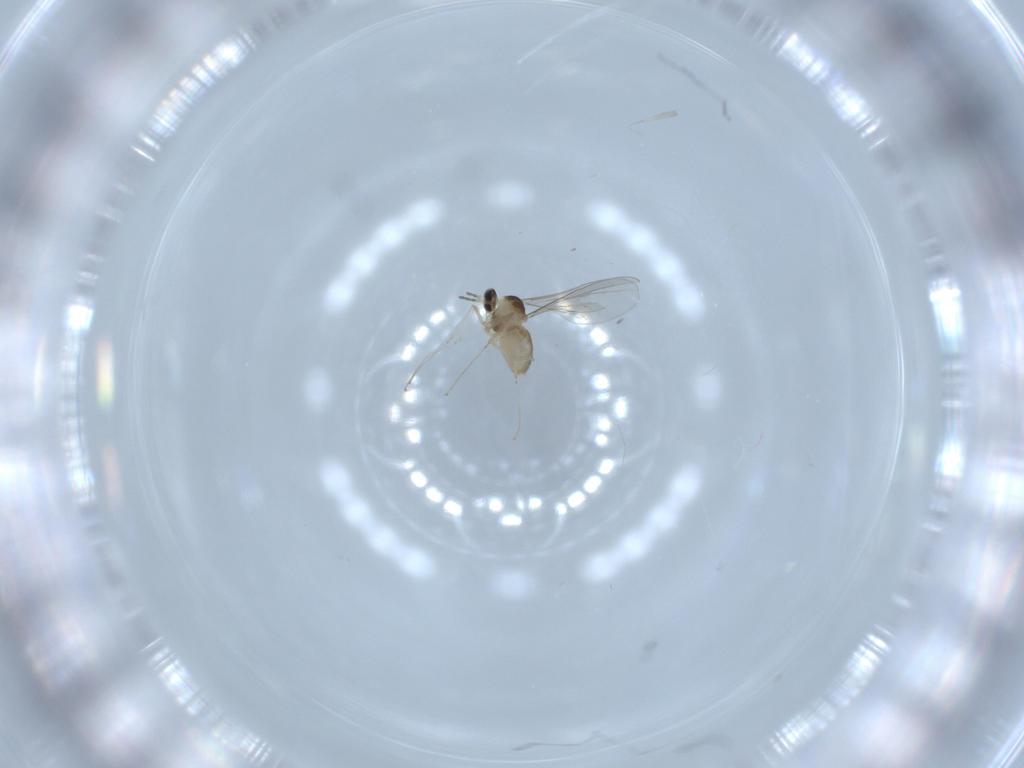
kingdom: Animalia
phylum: Arthropoda
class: Insecta
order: Diptera
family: Cecidomyiidae
